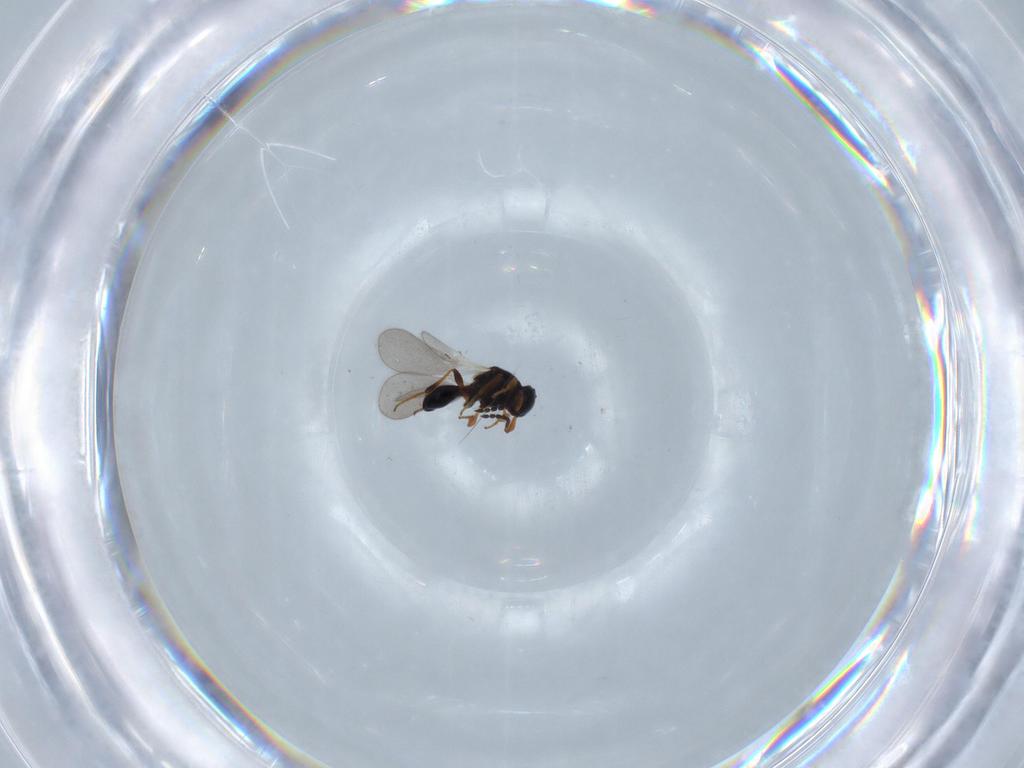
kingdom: Animalia
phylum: Arthropoda
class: Insecta
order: Hymenoptera
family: Platygastridae
